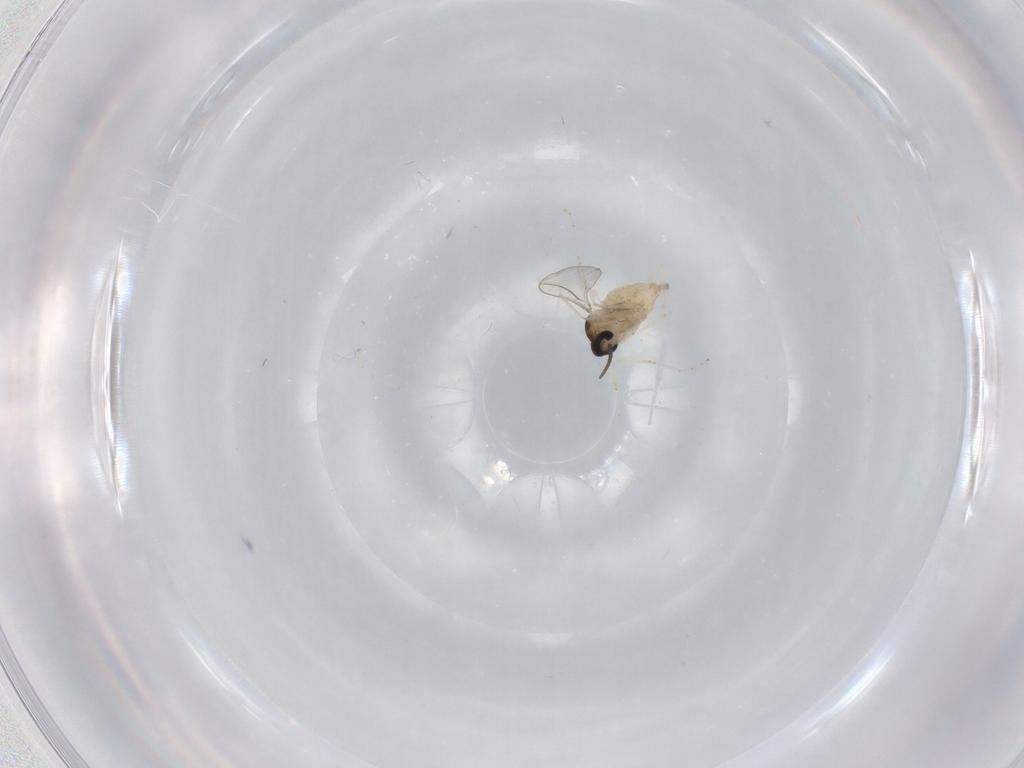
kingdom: Animalia
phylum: Arthropoda
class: Insecta
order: Diptera
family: Cecidomyiidae
